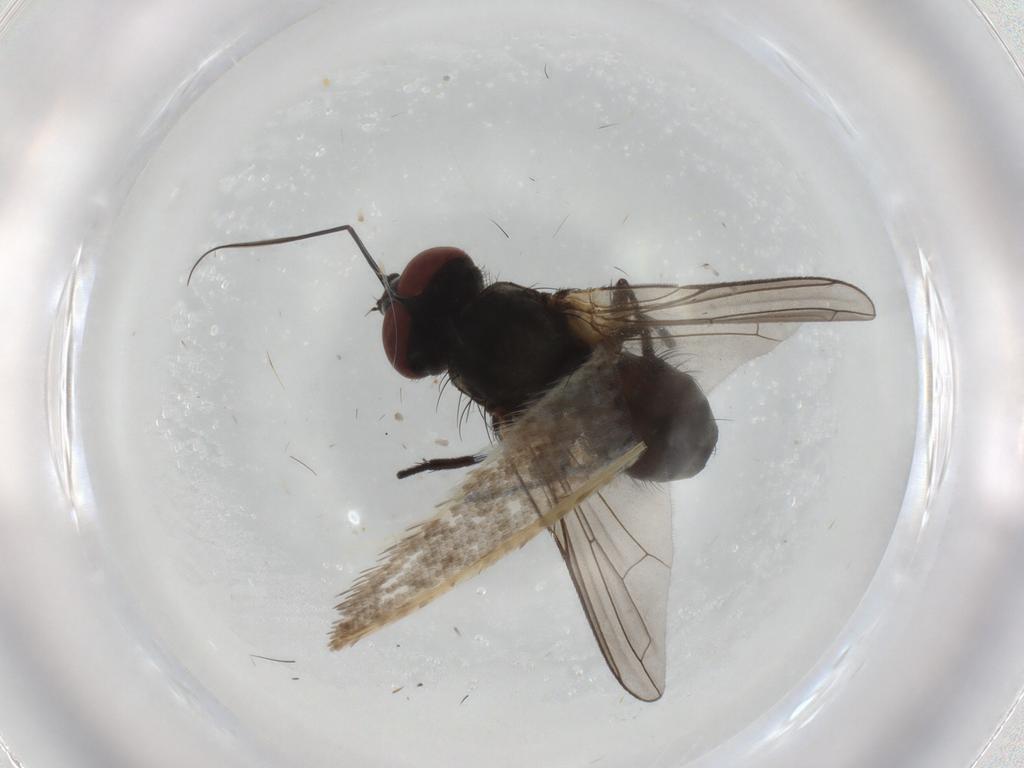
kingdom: Animalia
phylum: Arthropoda
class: Insecta
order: Diptera
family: Tachinidae
